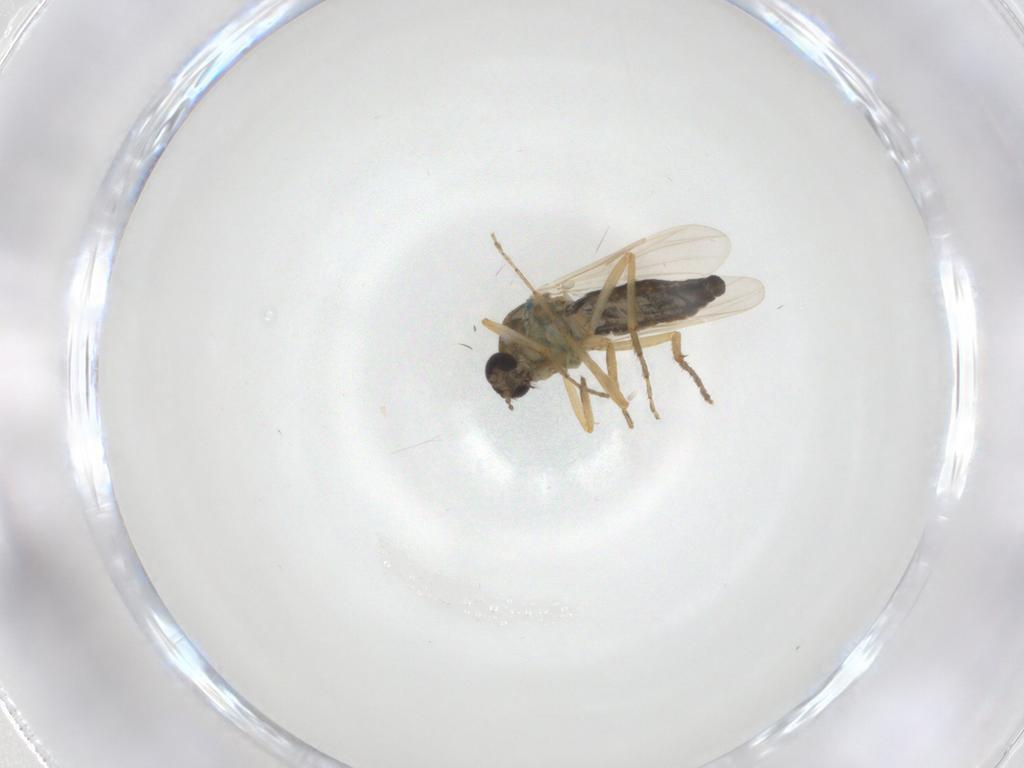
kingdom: Animalia
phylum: Arthropoda
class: Insecta
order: Diptera
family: Ceratopogonidae
